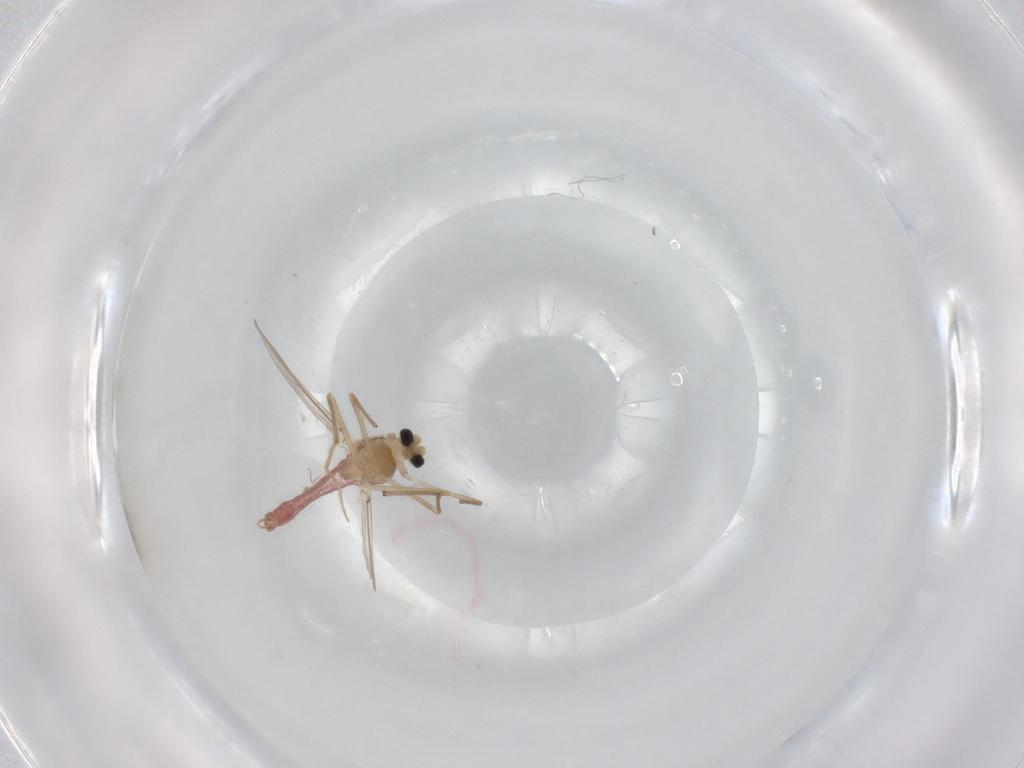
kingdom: Animalia
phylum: Arthropoda
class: Insecta
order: Diptera
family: Chironomidae
